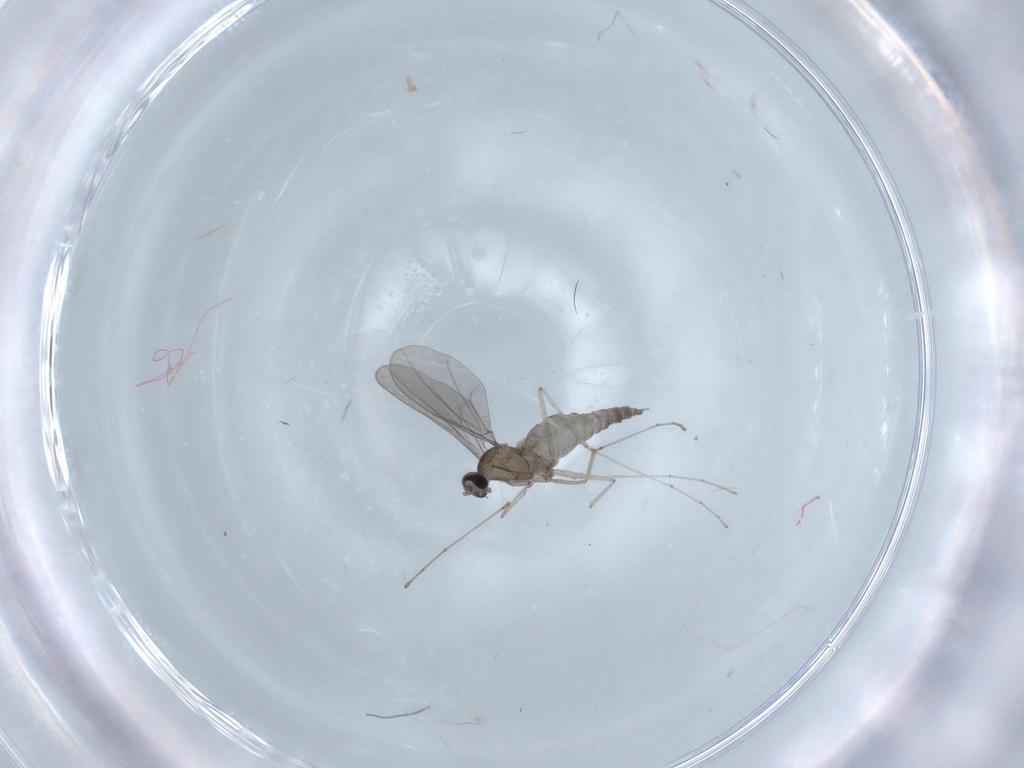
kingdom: Animalia
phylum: Arthropoda
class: Insecta
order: Diptera
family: Cecidomyiidae
